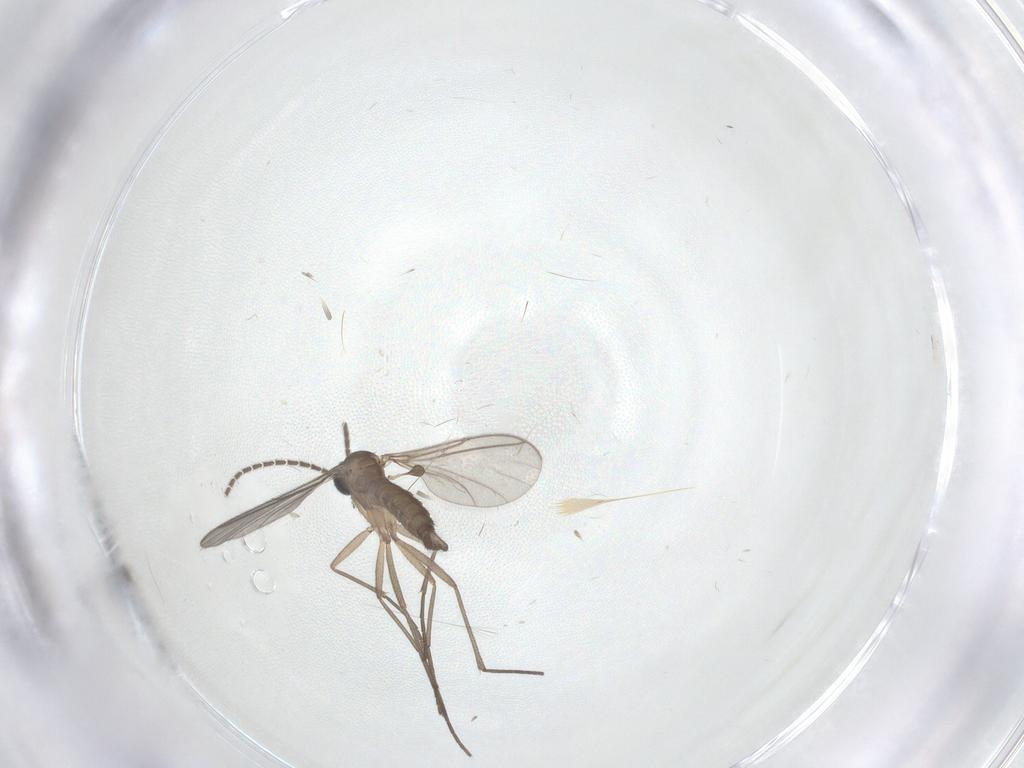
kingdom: Animalia
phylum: Arthropoda
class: Insecta
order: Diptera
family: Sciaridae
